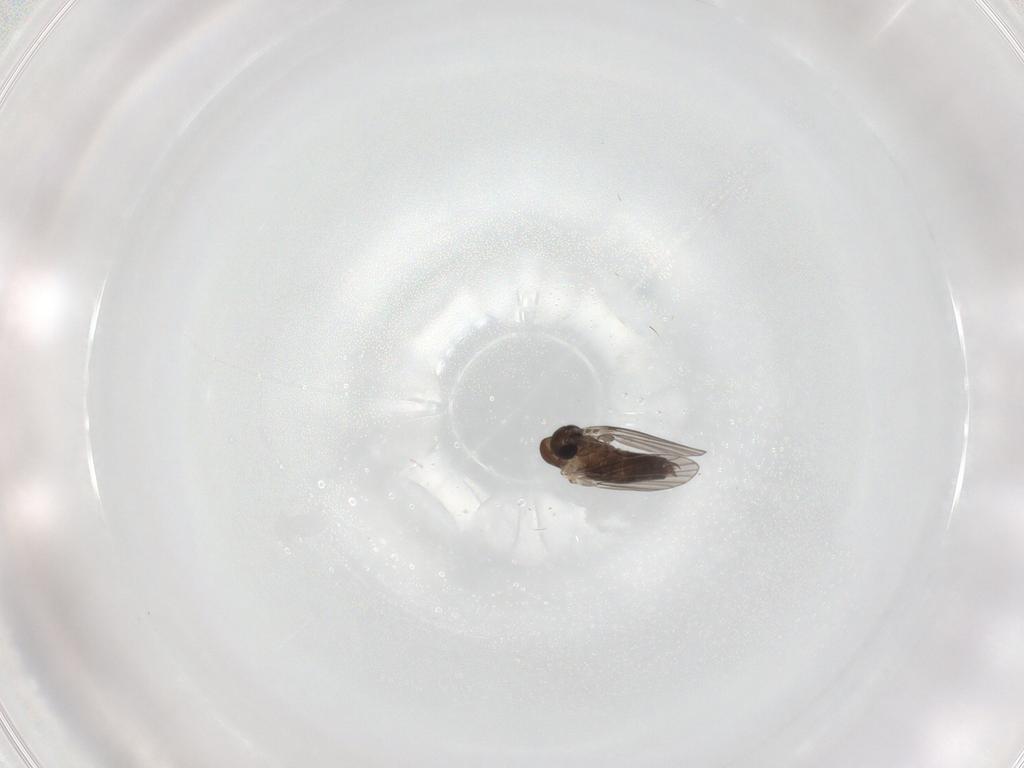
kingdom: Animalia
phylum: Arthropoda
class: Insecta
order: Diptera
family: Psychodidae
